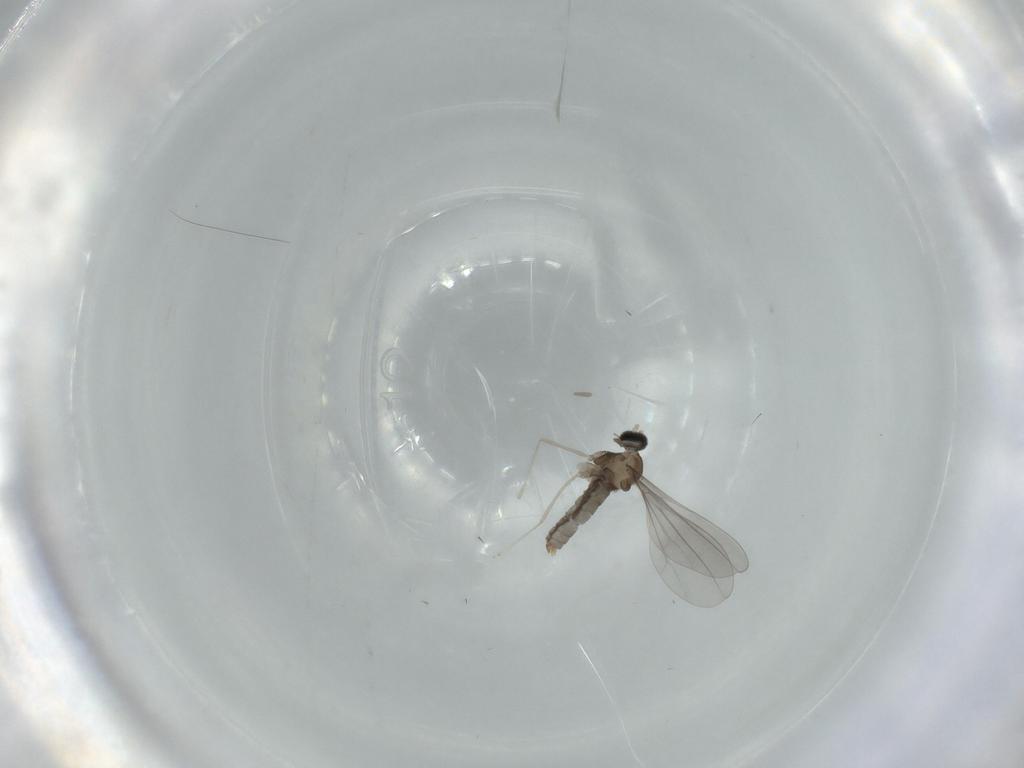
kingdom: Animalia
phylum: Arthropoda
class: Insecta
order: Diptera
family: Cecidomyiidae
